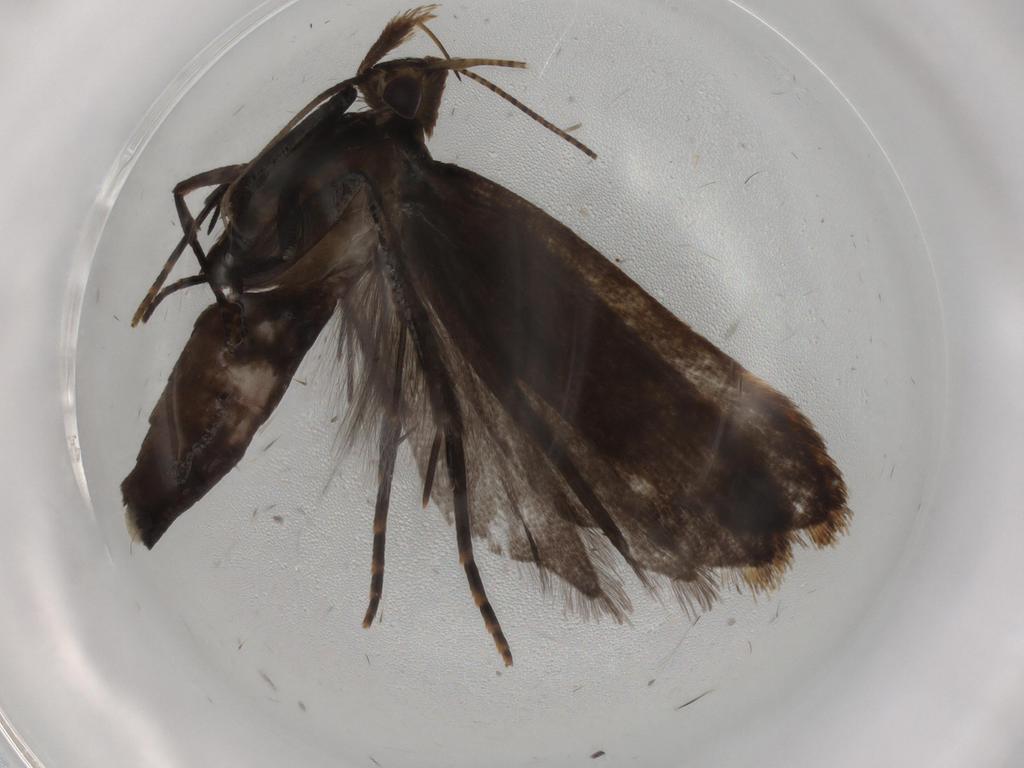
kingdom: Animalia
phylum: Arthropoda
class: Insecta
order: Lepidoptera
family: Gelechiidae
